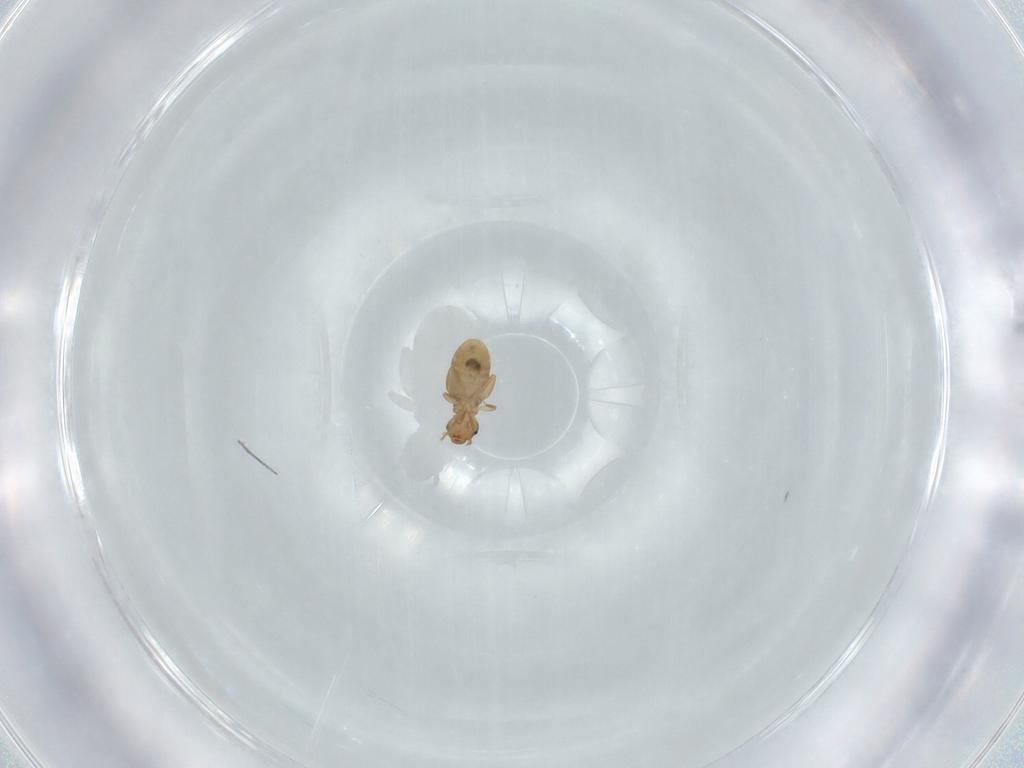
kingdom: Animalia
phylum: Arthropoda
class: Insecta
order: Psocodea
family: Liposcelididae
